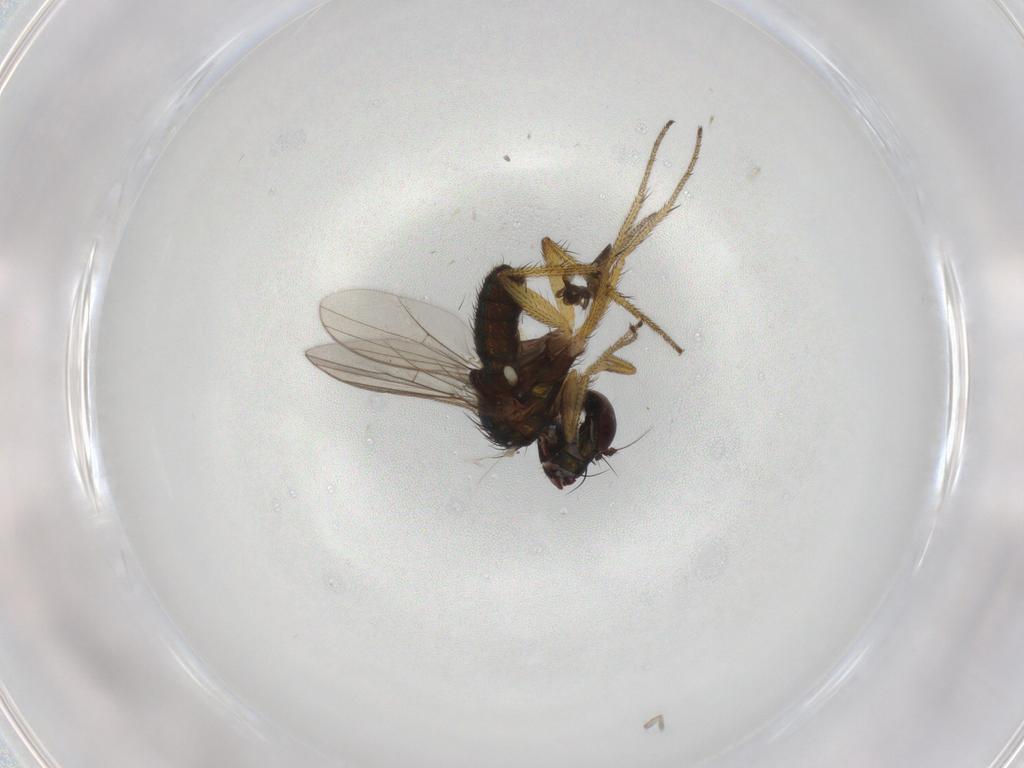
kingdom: Animalia
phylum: Arthropoda
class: Insecta
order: Diptera
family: Chironomidae
